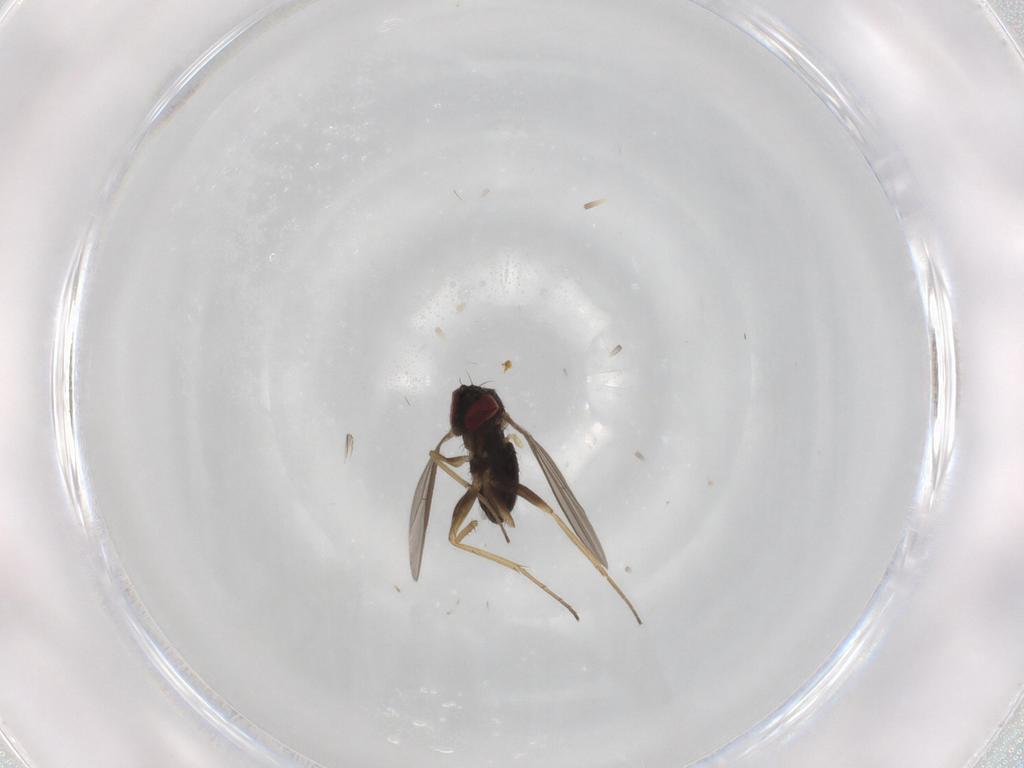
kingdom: Animalia
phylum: Arthropoda
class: Insecta
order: Diptera
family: Dolichopodidae
